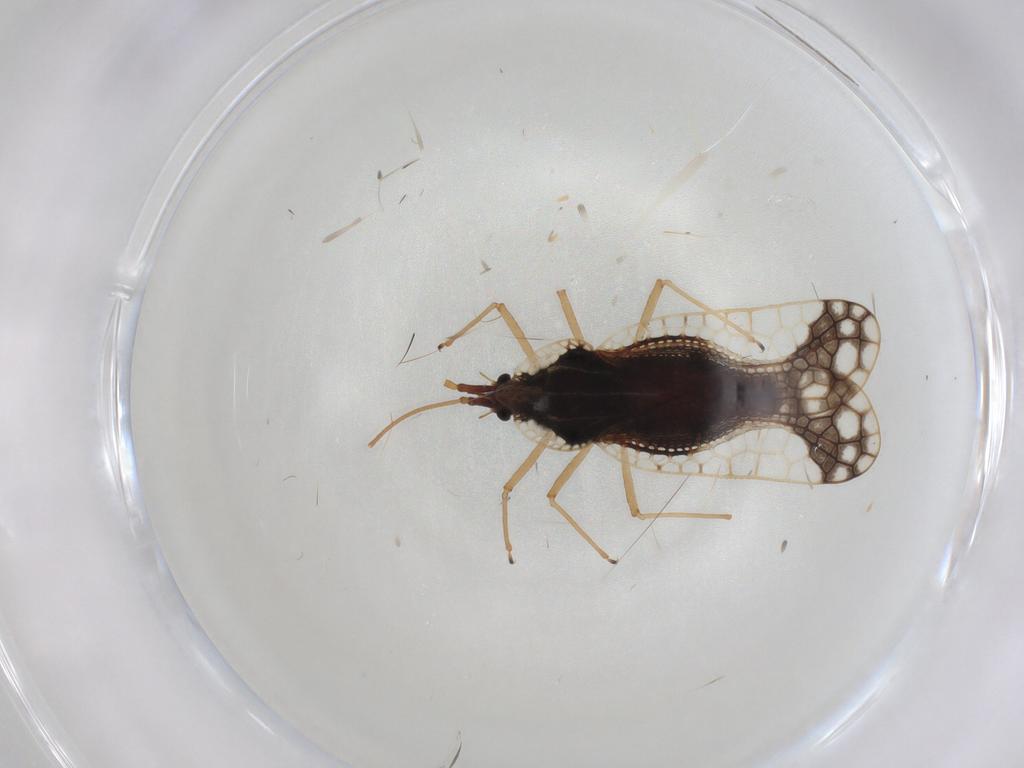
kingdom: Animalia
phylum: Arthropoda
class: Insecta
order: Hemiptera
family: Tingidae
